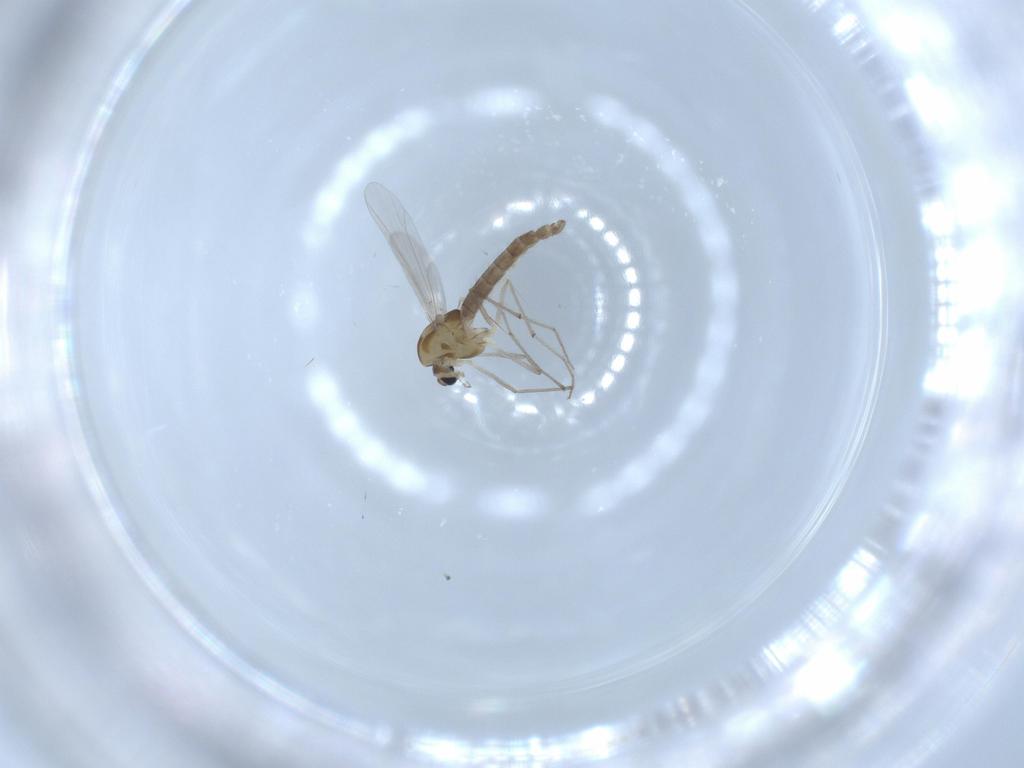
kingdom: Animalia
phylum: Arthropoda
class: Insecta
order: Diptera
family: Chironomidae
